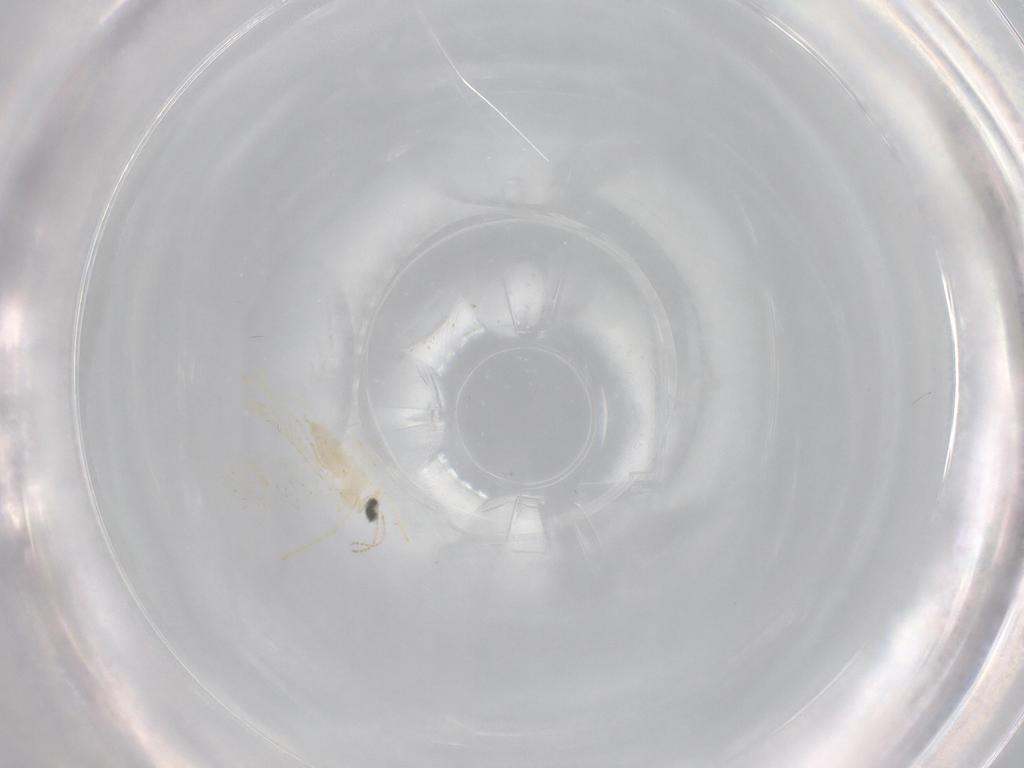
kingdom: Animalia
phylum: Arthropoda
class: Insecta
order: Diptera
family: Cecidomyiidae
